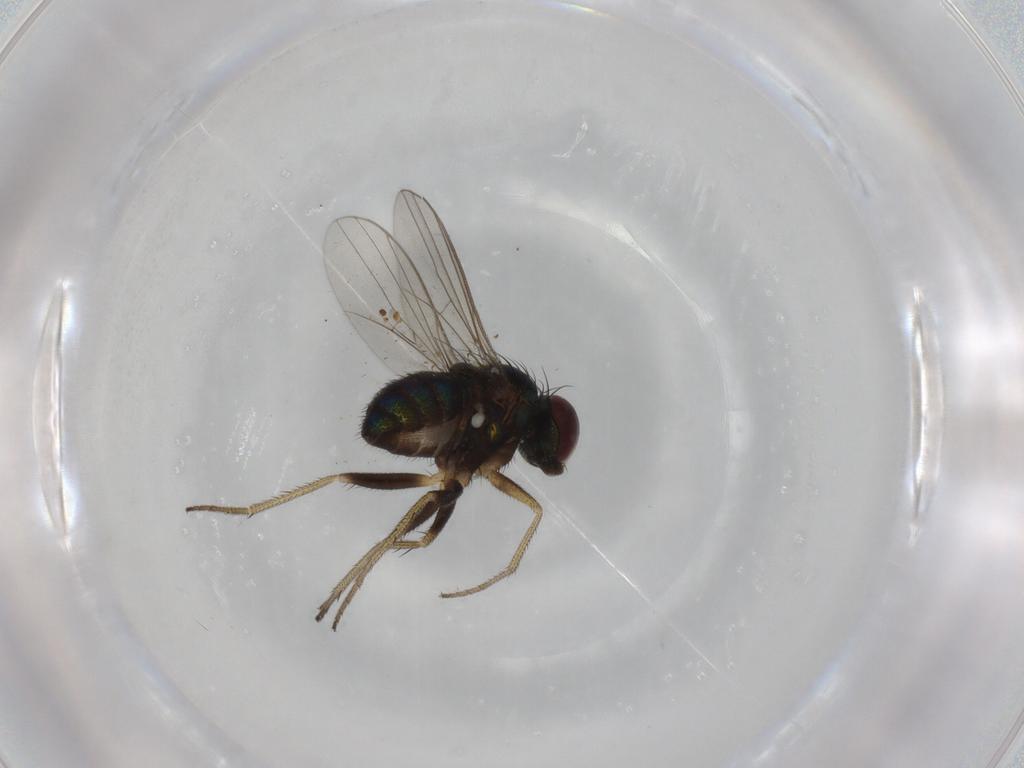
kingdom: Animalia
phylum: Arthropoda
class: Insecta
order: Diptera
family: Dolichopodidae
